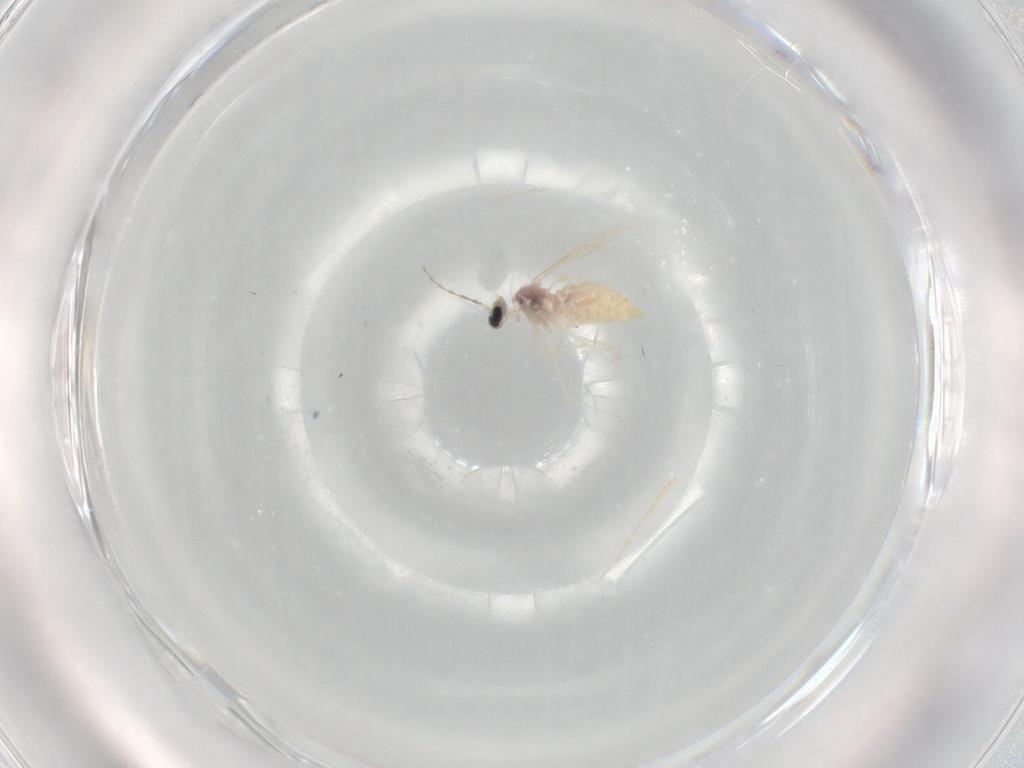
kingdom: Animalia
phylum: Arthropoda
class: Insecta
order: Diptera
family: Cecidomyiidae
